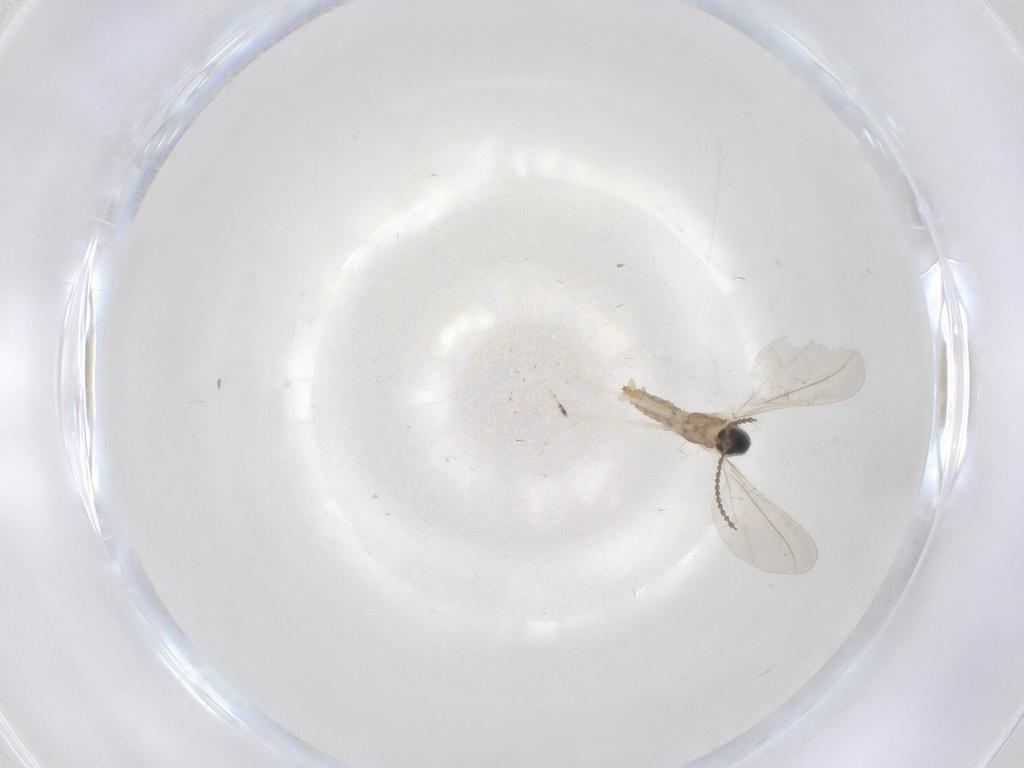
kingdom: Animalia
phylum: Arthropoda
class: Insecta
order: Diptera
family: Cecidomyiidae
